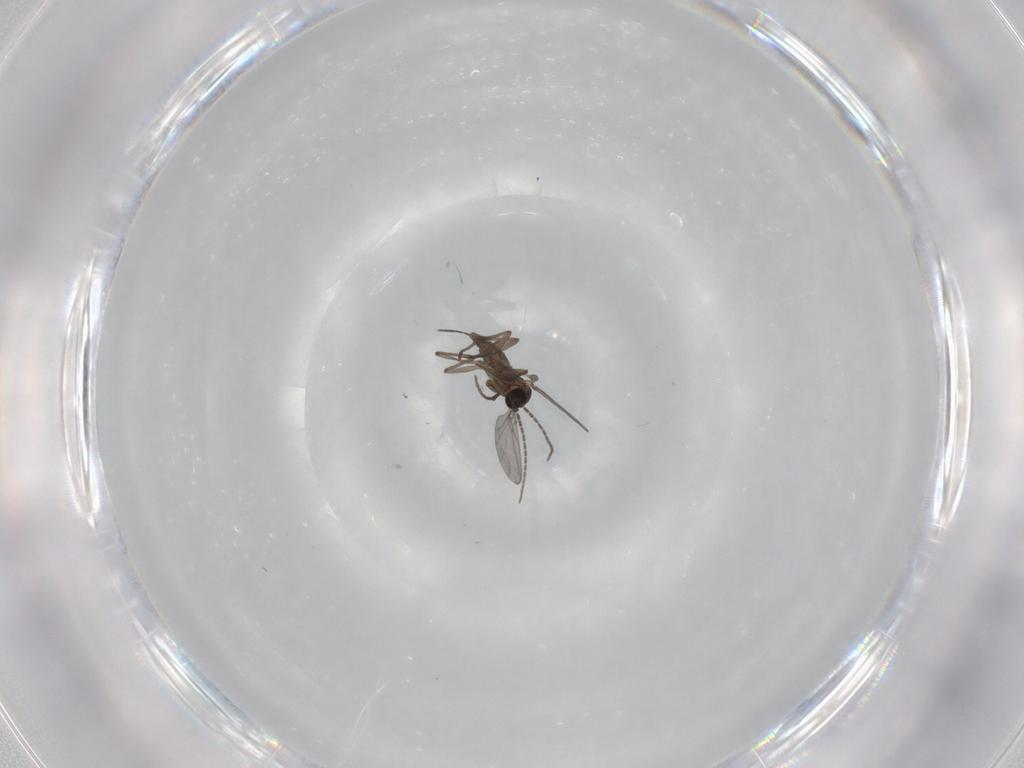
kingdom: Animalia
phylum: Arthropoda
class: Insecta
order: Diptera
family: Sciaridae
